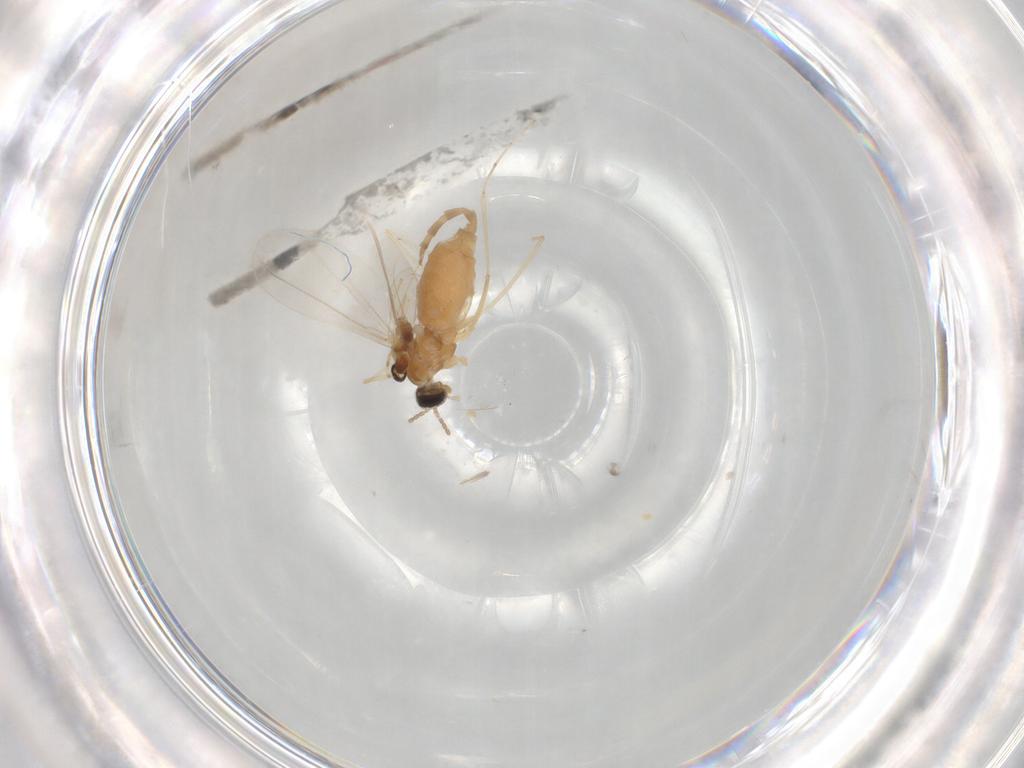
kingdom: Animalia
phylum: Arthropoda
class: Insecta
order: Diptera
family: Cecidomyiidae
